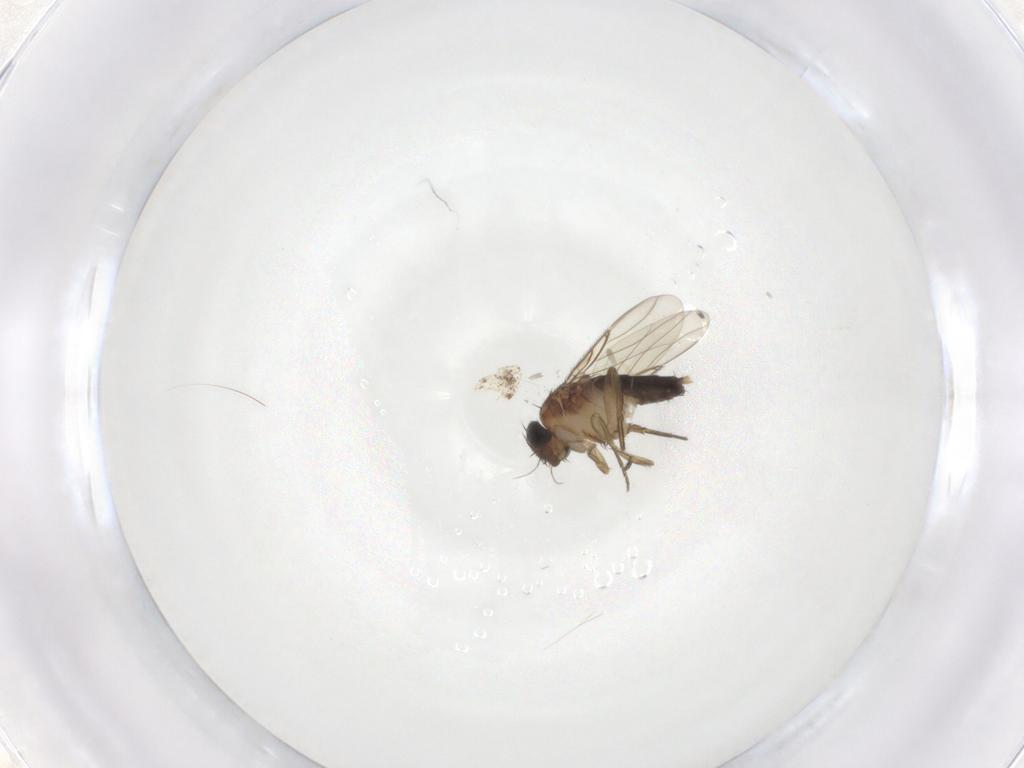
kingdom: Animalia
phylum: Arthropoda
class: Insecta
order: Diptera
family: Phoridae
